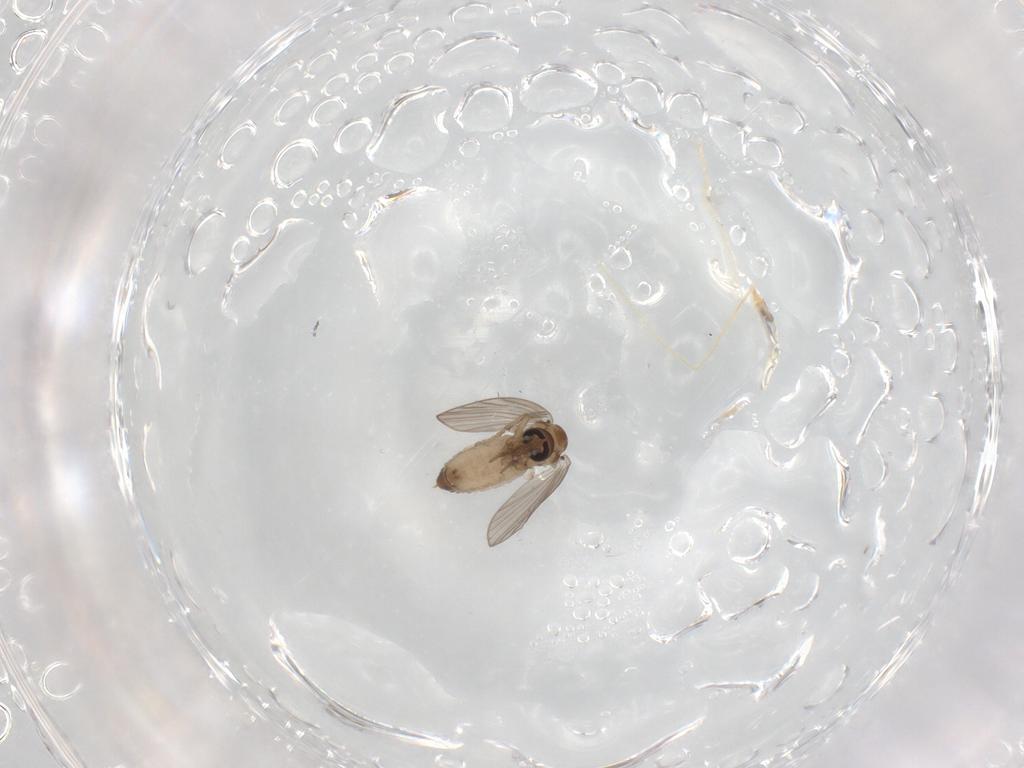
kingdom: Animalia
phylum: Arthropoda
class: Insecta
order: Diptera
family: Psychodidae
